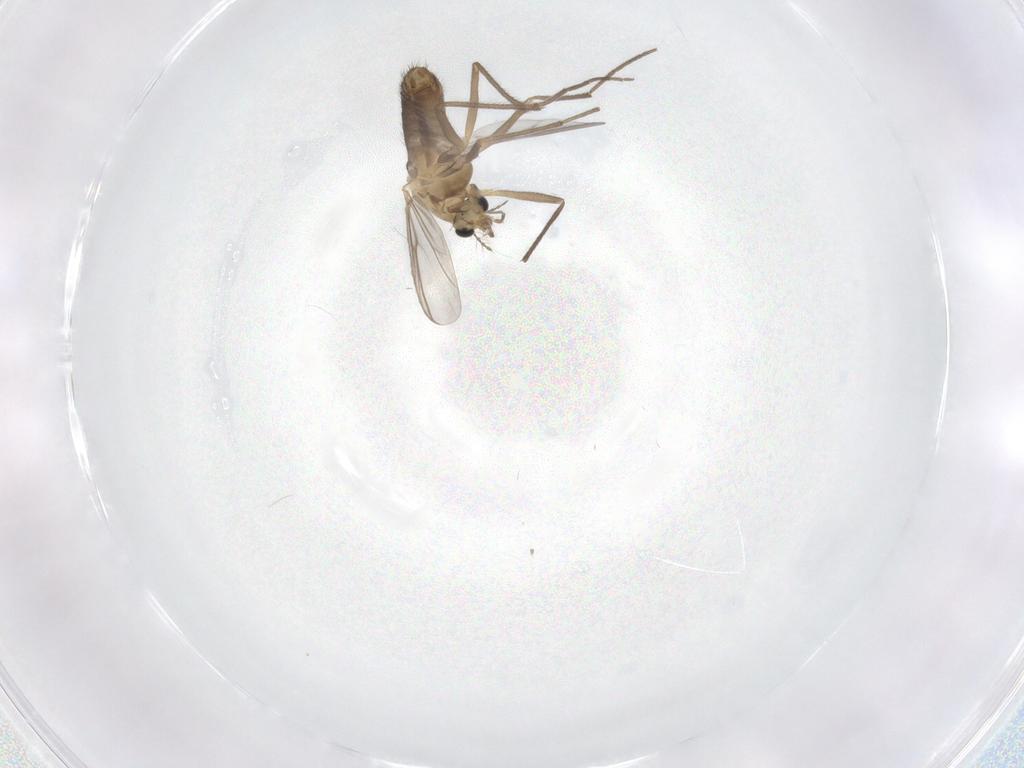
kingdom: Animalia
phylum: Arthropoda
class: Insecta
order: Diptera
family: Chironomidae
